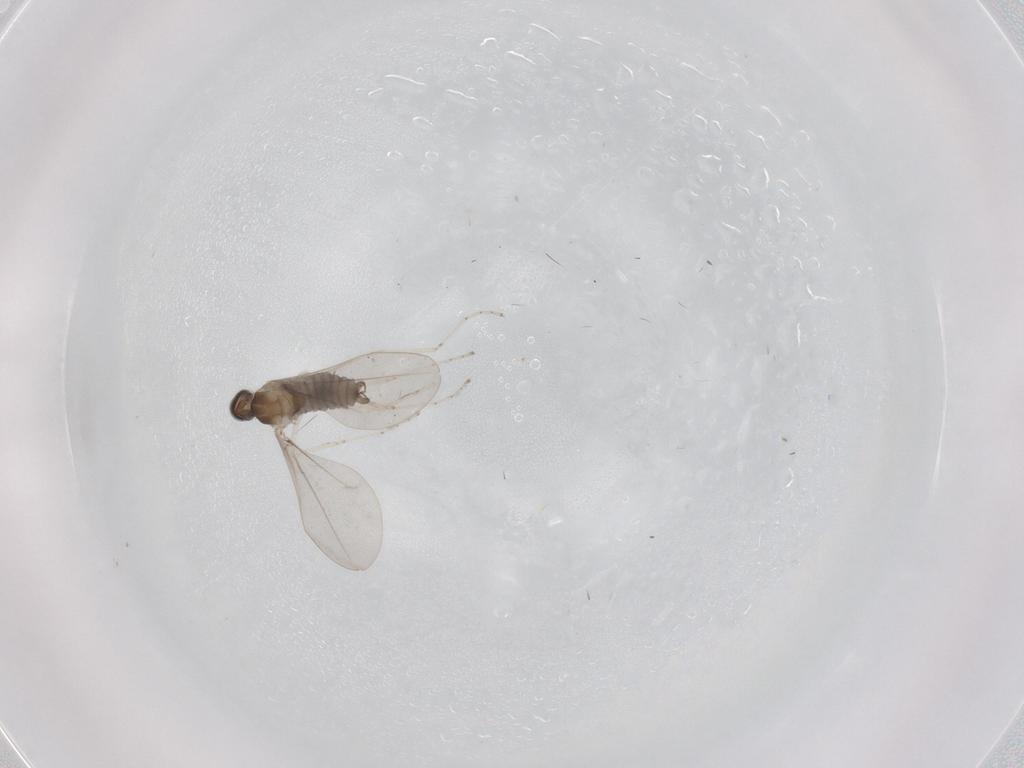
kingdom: Animalia
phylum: Arthropoda
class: Insecta
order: Diptera
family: Cecidomyiidae
